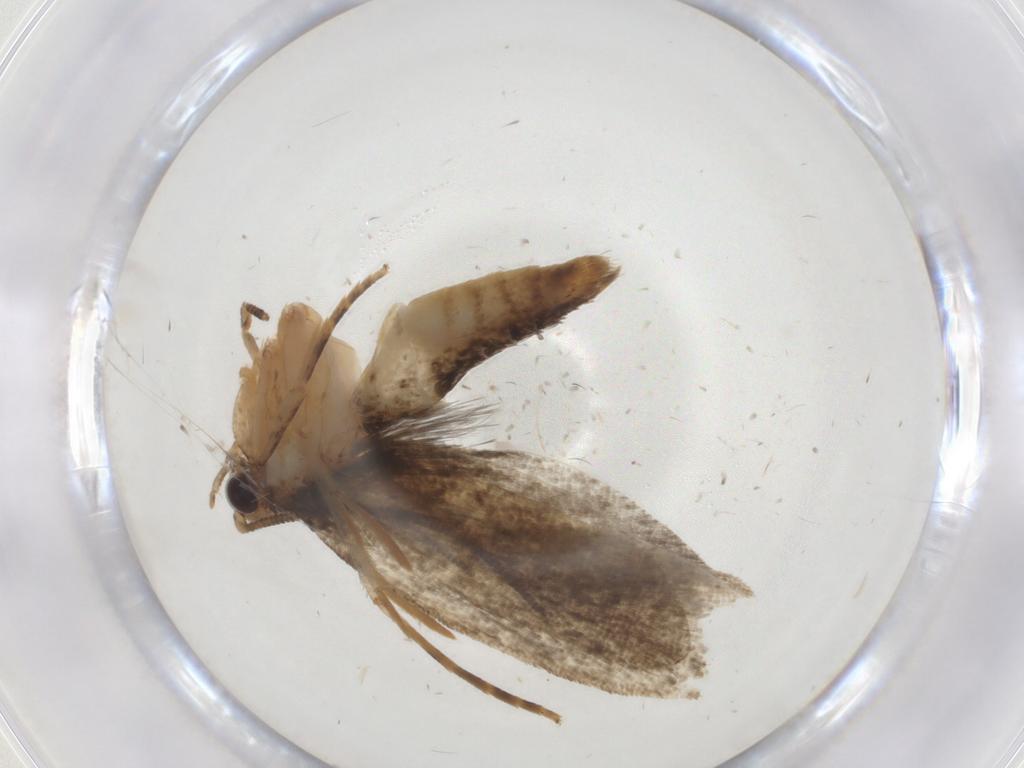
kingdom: Animalia
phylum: Arthropoda
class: Insecta
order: Lepidoptera
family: Tineidae
